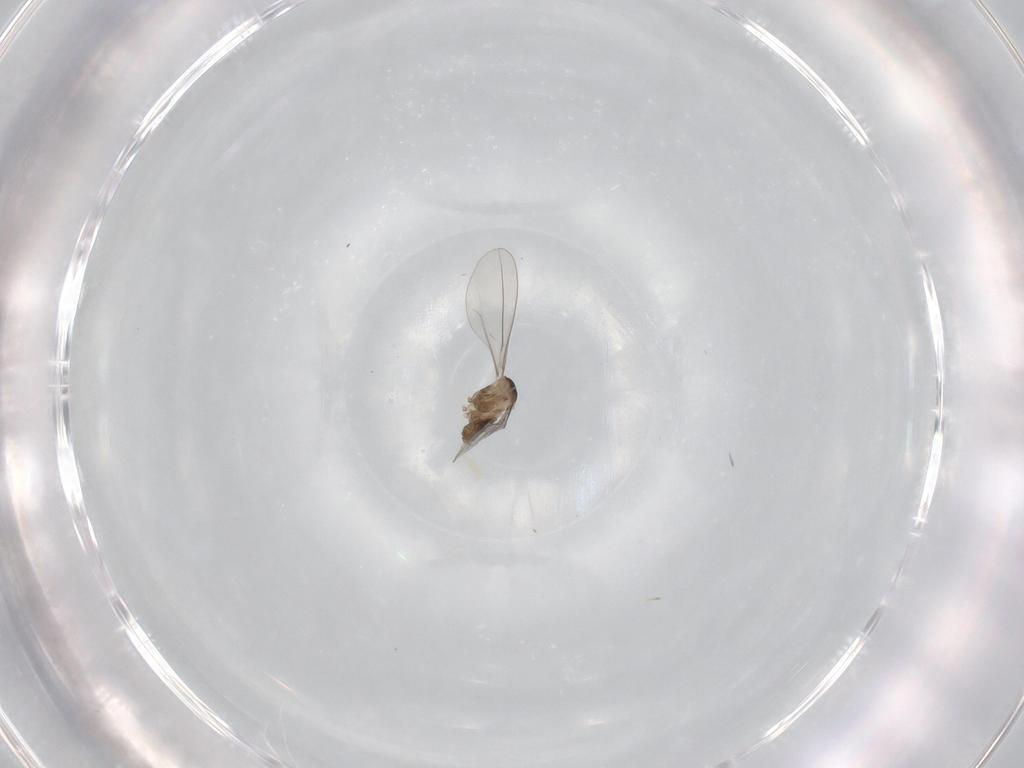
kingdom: Animalia
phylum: Arthropoda
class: Insecta
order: Diptera
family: Cecidomyiidae
